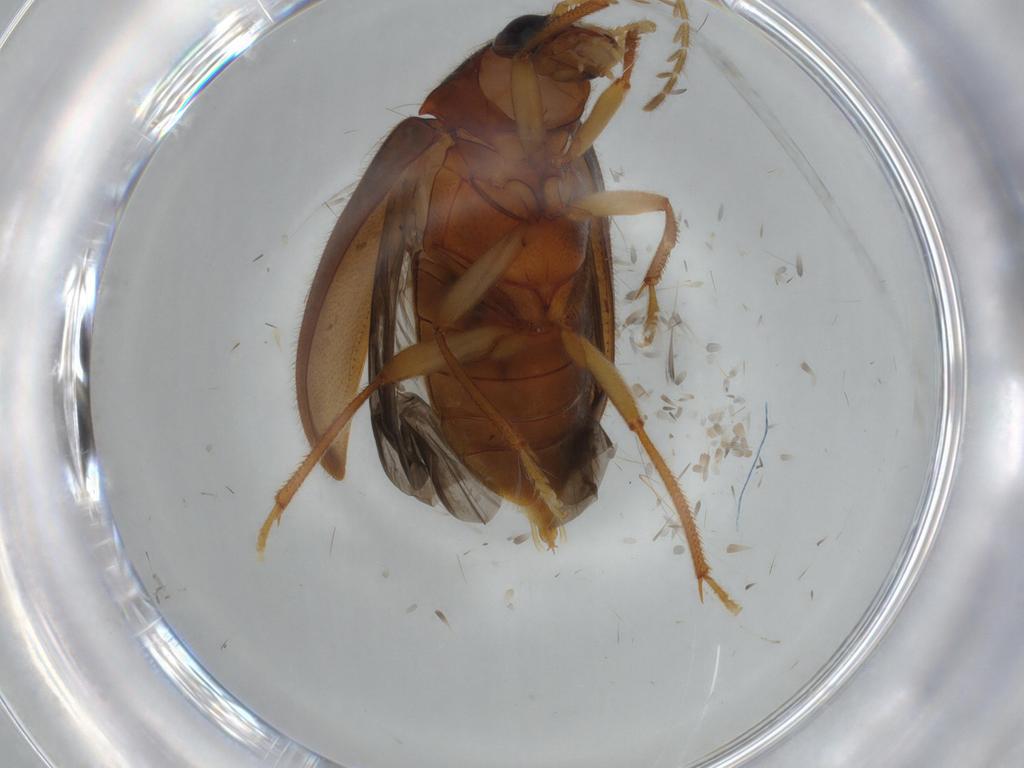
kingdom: Animalia
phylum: Arthropoda
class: Insecta
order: Coleoptera
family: Ptilodactylidae
